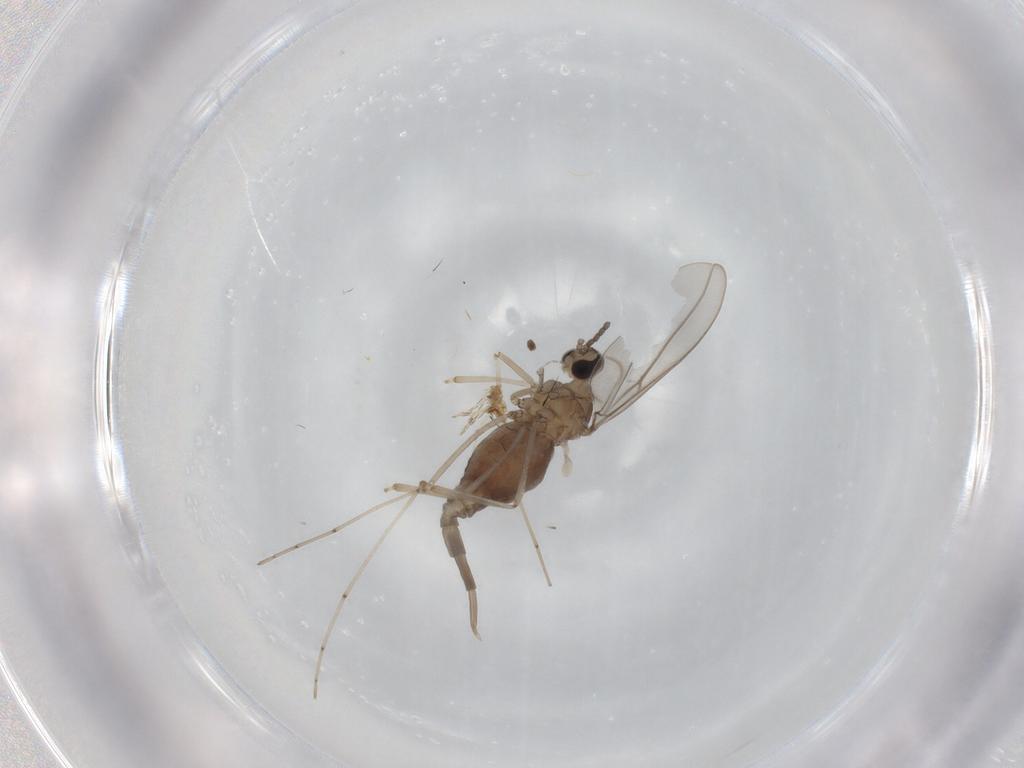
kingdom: Animalia
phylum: Arthropoda
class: Insecta
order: Diptera
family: Cecidomyiidae
